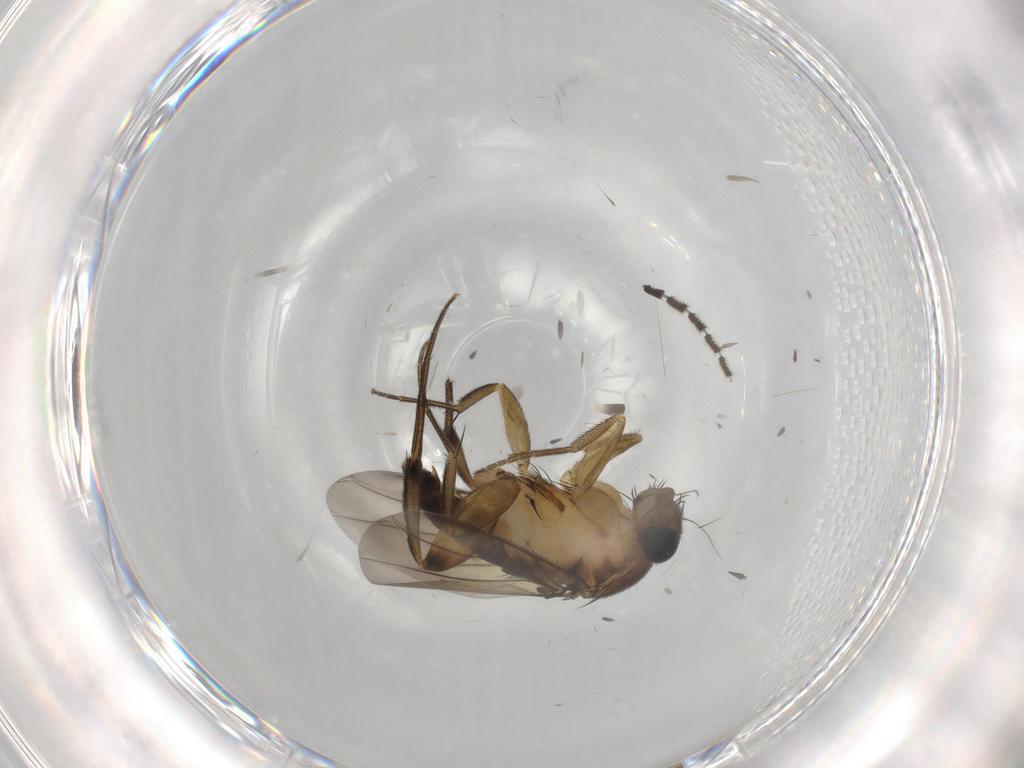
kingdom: Animalia
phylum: Arthropoda
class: Insecta
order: Diptera
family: Phoridae
